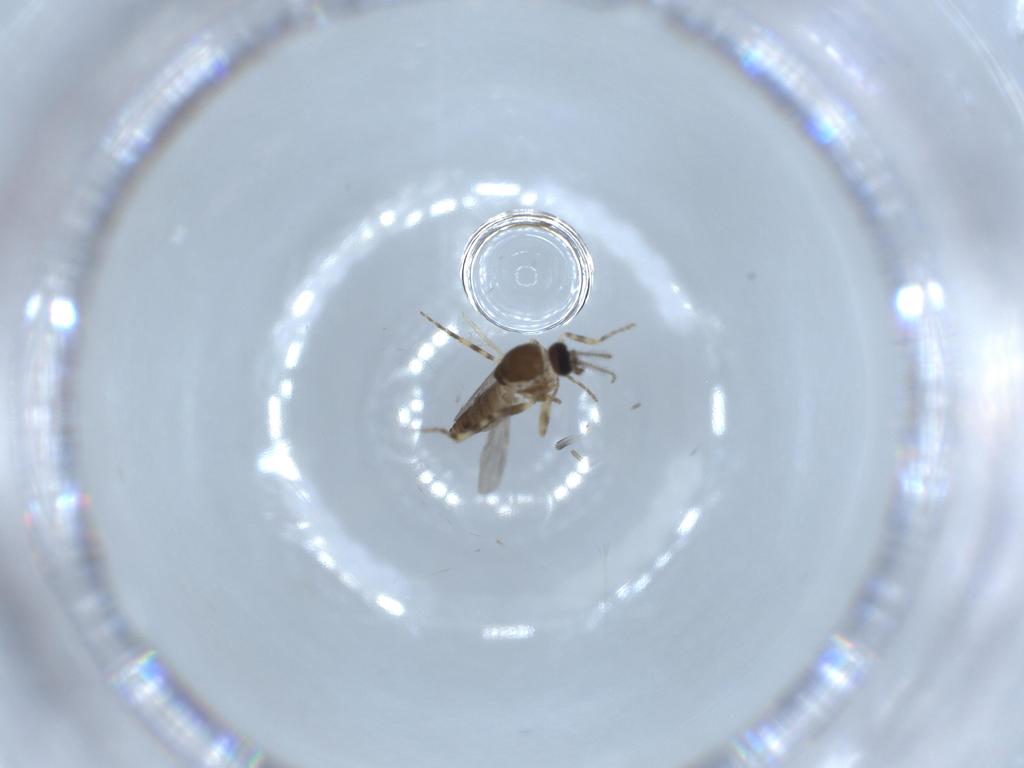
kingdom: Animalia
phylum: Arthropoda
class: Insecta
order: Diptera
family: Ceratopogonidae
